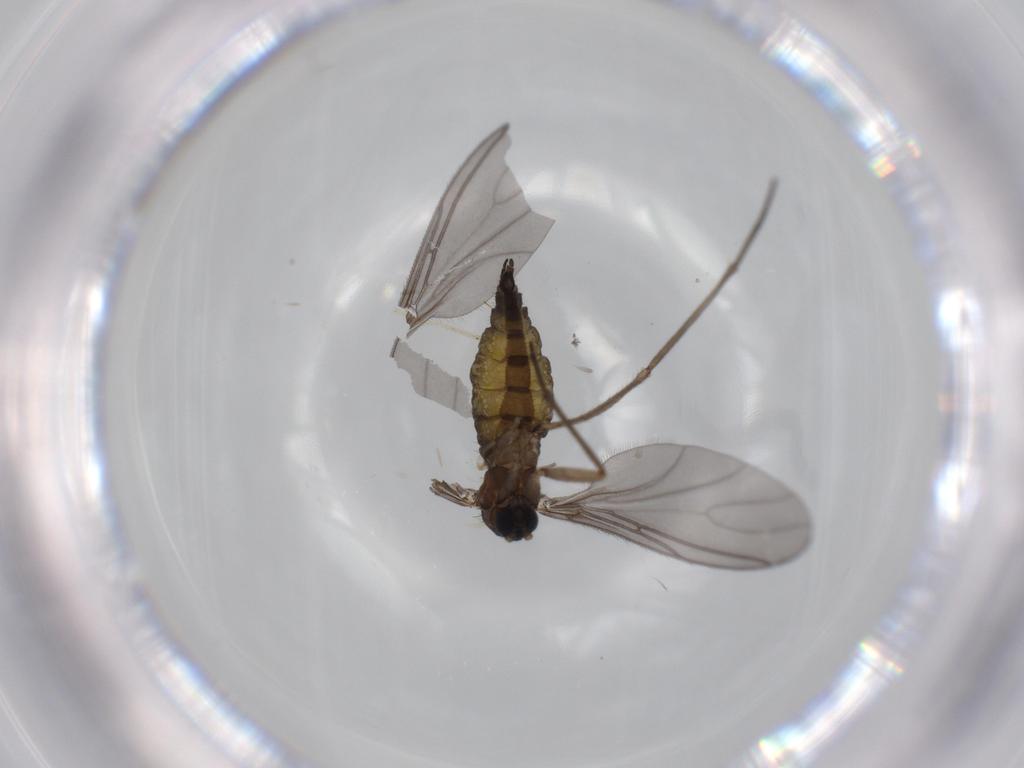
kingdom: Animalia
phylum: Arthropoda
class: Insecta
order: Diptera
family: Sciaridae
